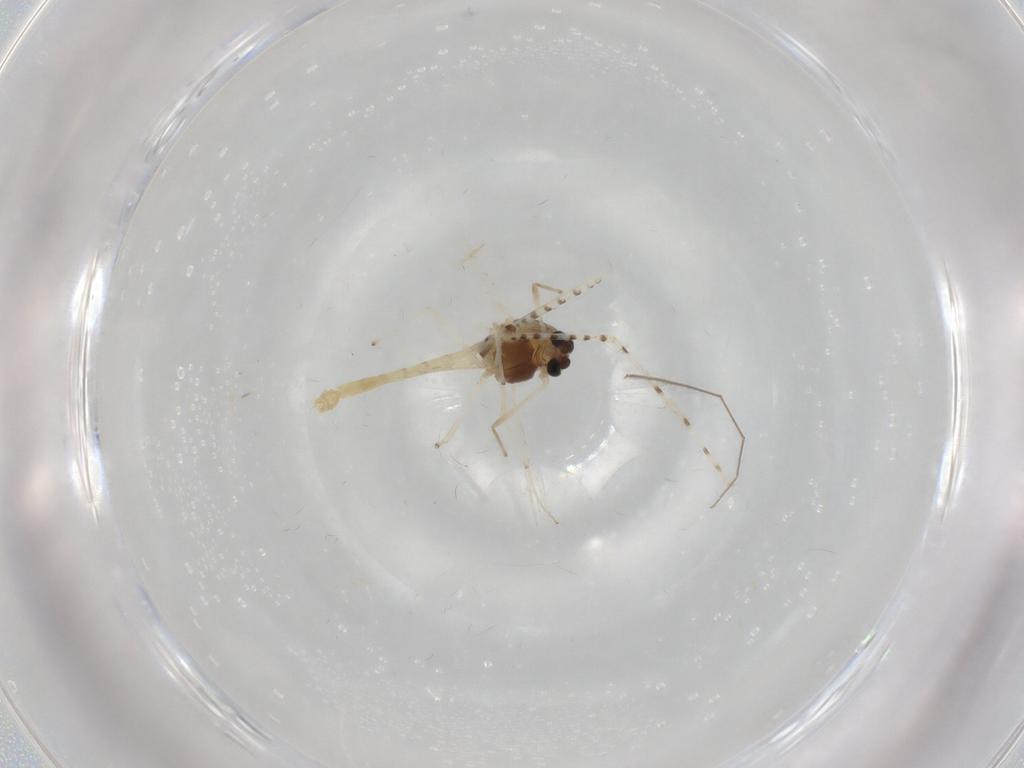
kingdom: Animalia
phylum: Arthropoda
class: Insecta
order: Diptera
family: Chironomidae
